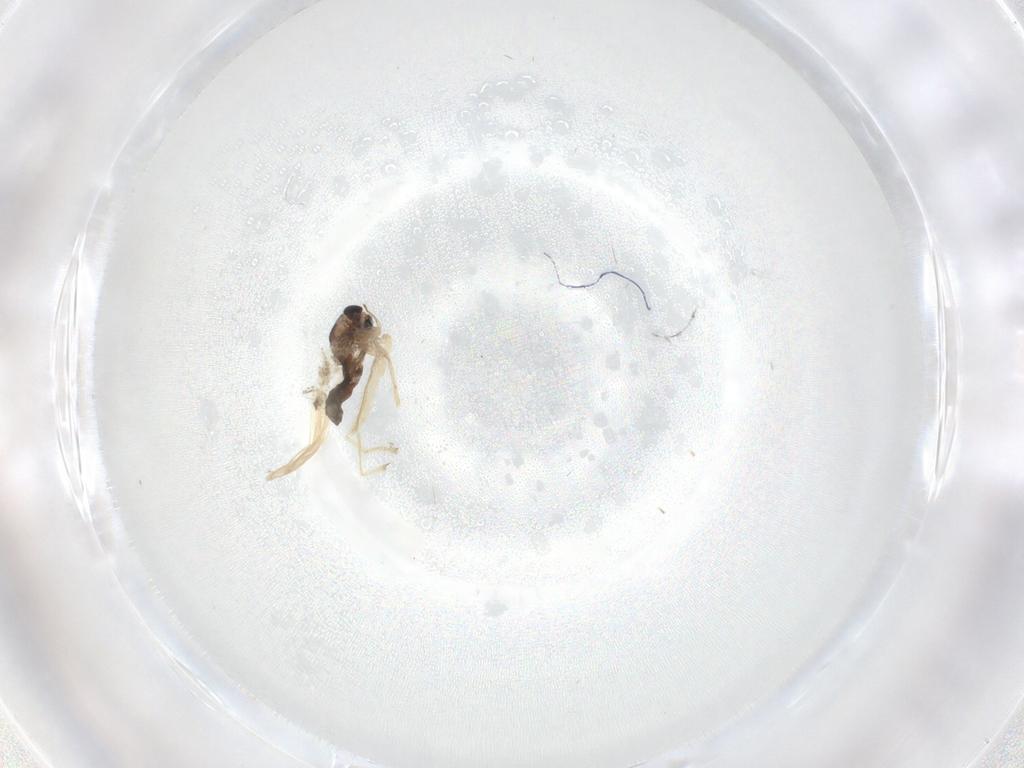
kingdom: Animalia
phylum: Arthropoda
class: Insecta
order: Diptera
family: Chironomidae
